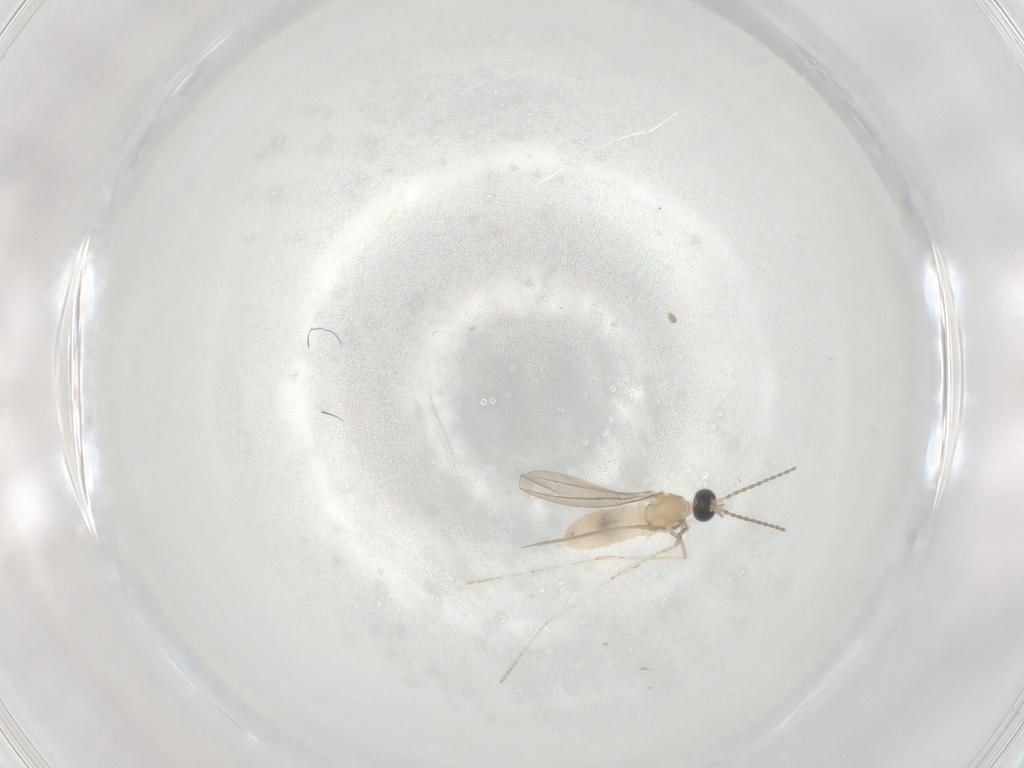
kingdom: Animalia
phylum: Arthropoda
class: Insecta
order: Diptera
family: Cecidomyiidae
